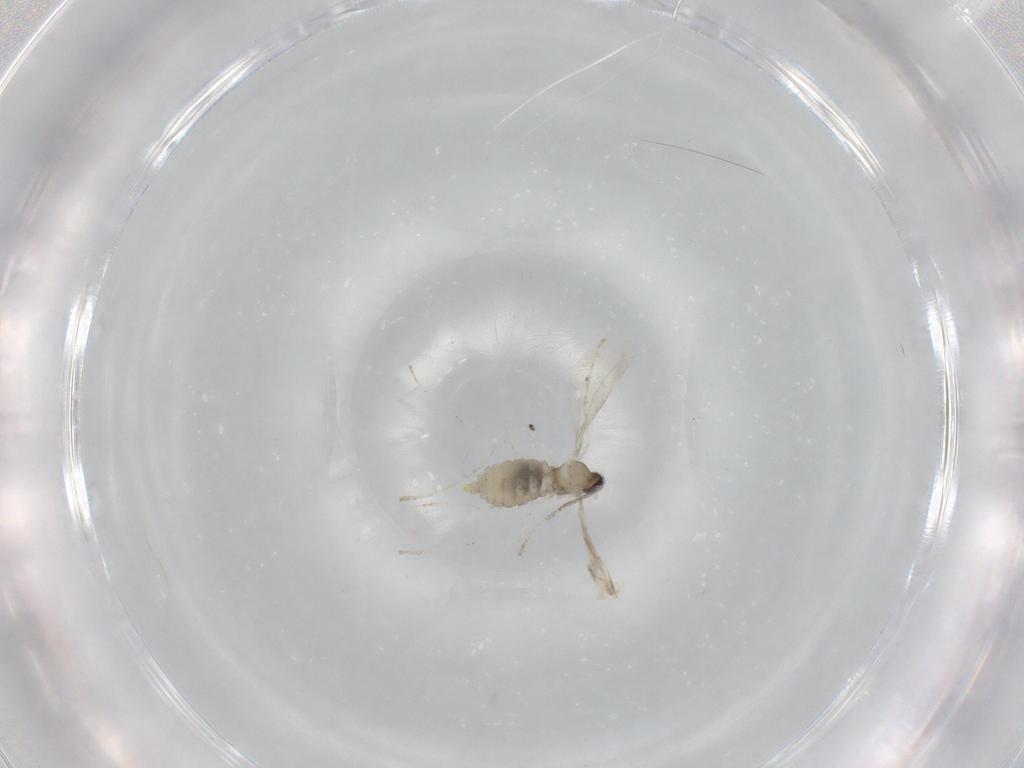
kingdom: Animalia
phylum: Arthropoda
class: Insecta
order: Diptera
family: Cecidomyiidae
